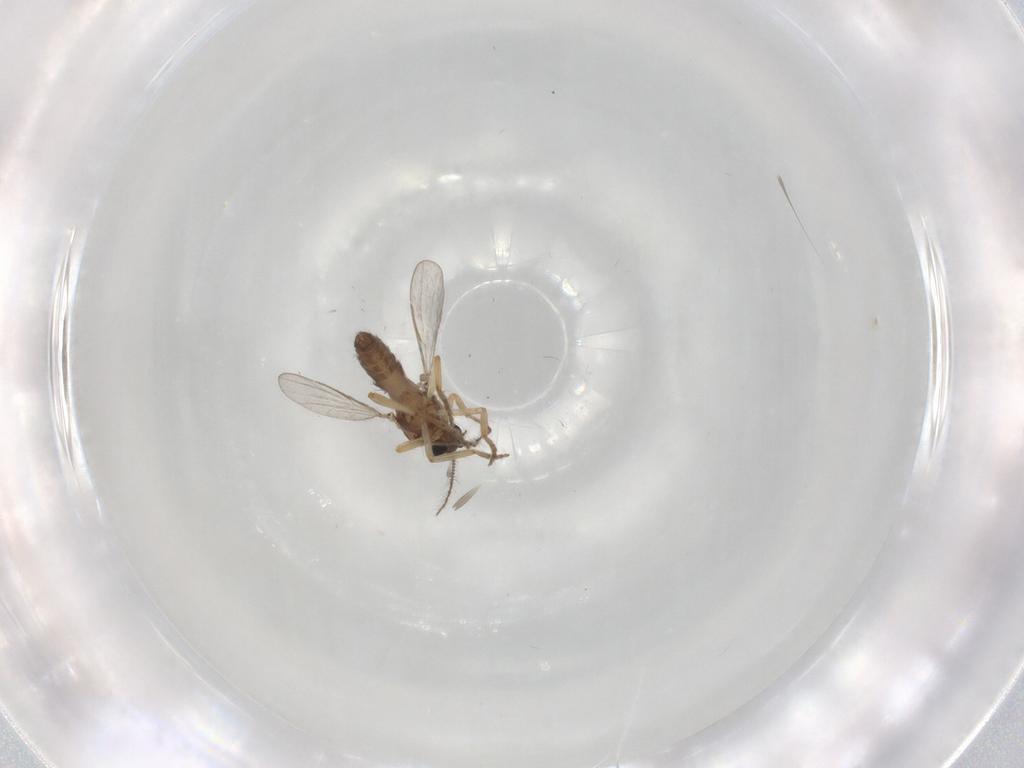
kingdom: Animalia
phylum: Arthropoda
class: Insecta
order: Diptera
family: Ceratopogonidae
